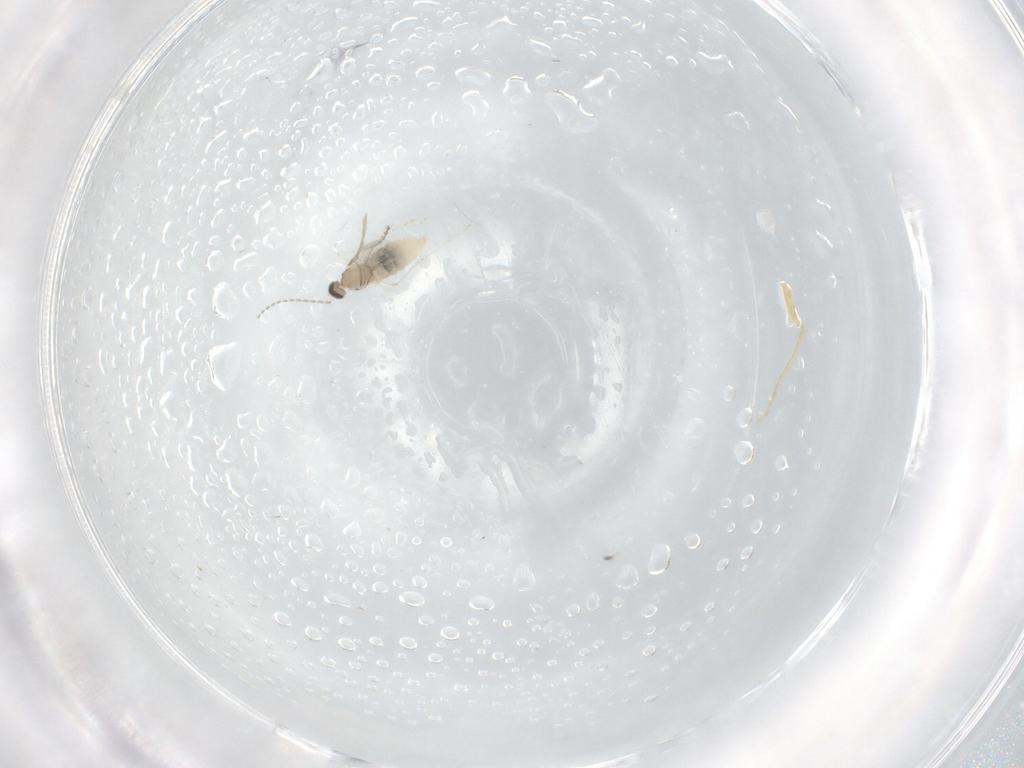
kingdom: Animalia
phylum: Arthropoda
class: Insecta
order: Diptera
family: Cecidomyiidae
